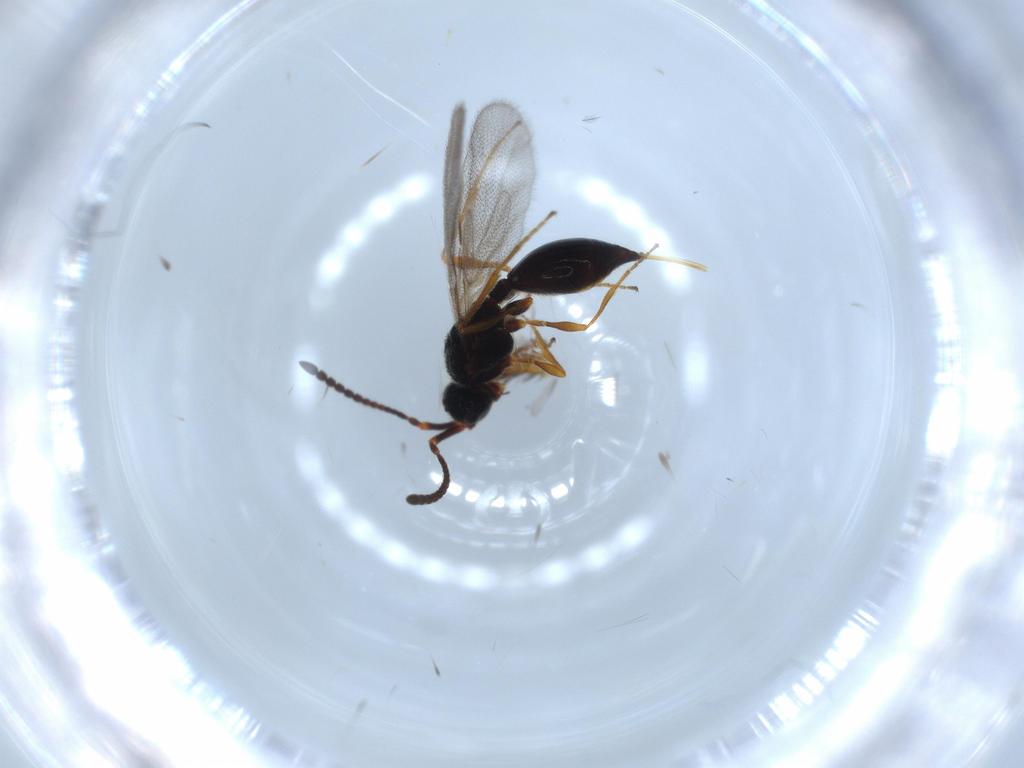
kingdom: Animalia
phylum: Arthropoda
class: Insecta
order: Hymenoptera
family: Diapriidae
